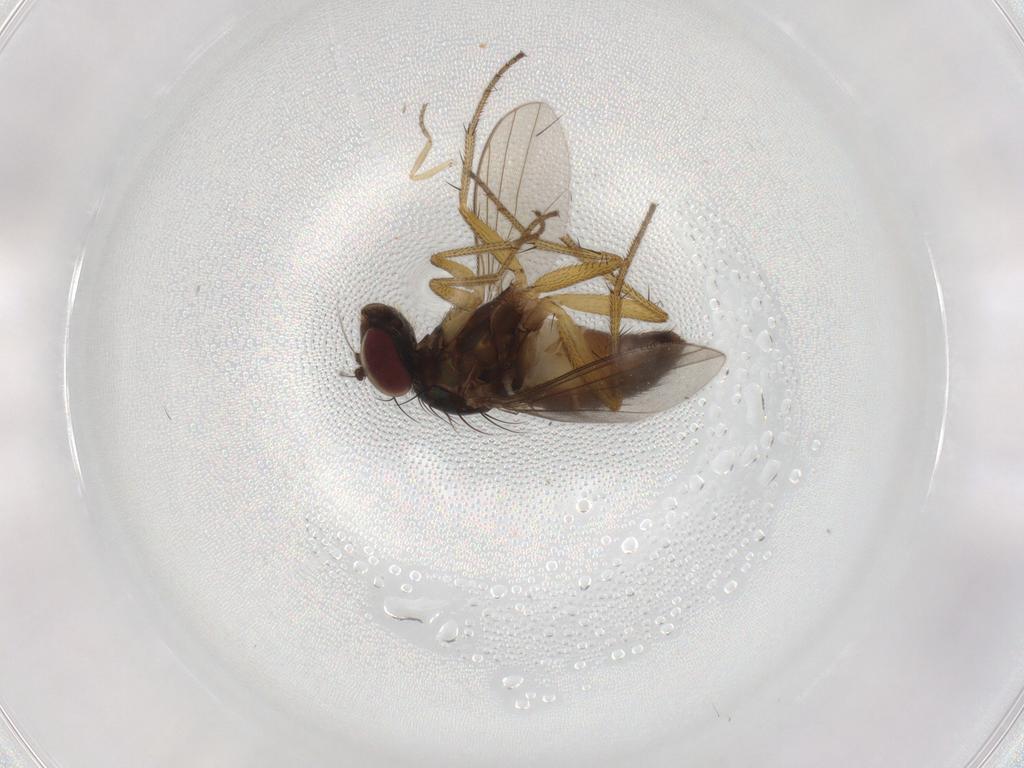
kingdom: Animalia
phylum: Arthropoda
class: Insecta
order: Diptera
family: Ceratopogonidae
